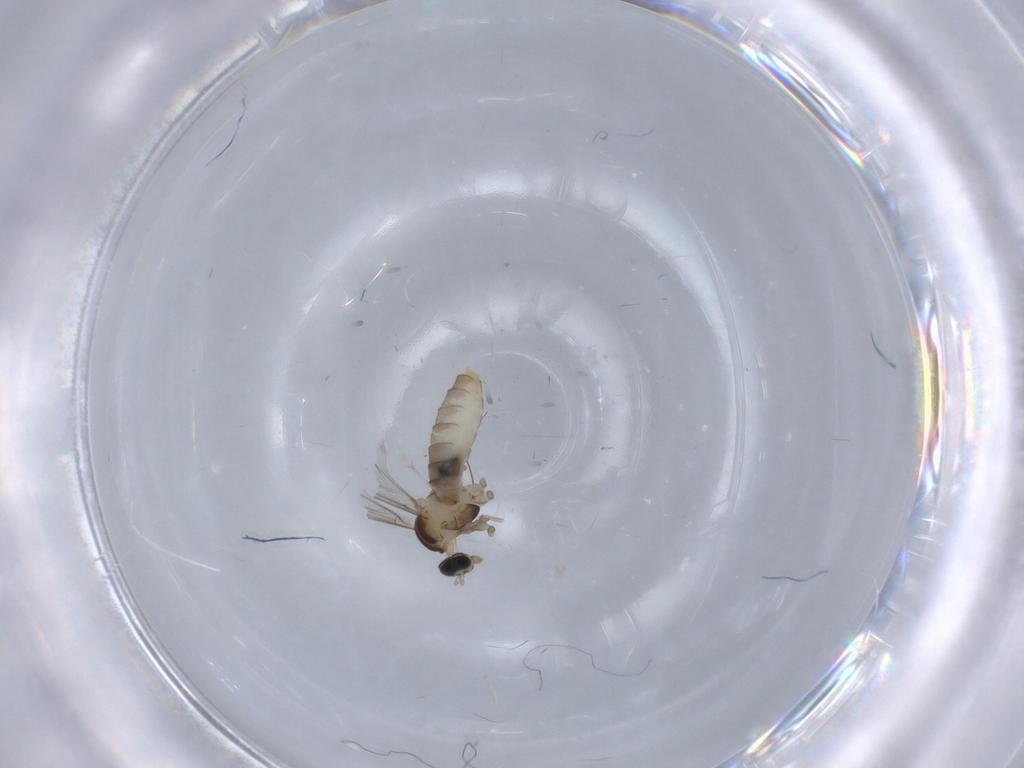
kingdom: Animalia
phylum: Arthropoda
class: Insecta
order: Diptera
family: Cecidomyiidae
